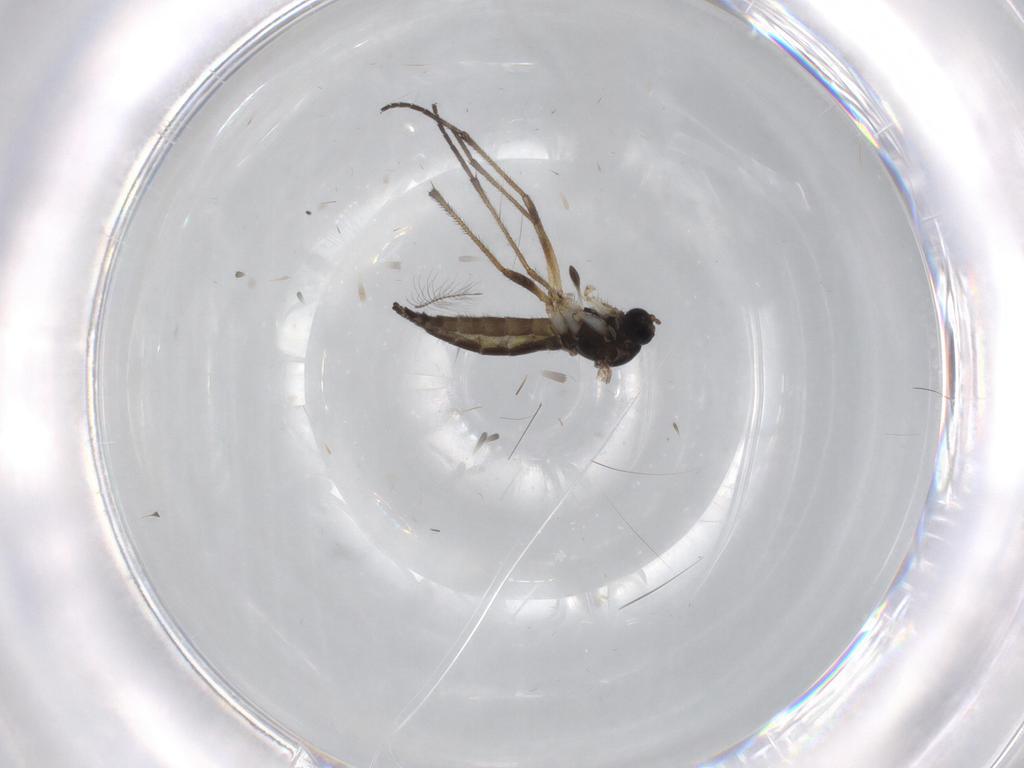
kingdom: Animalia
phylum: Arthropoda
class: Insecta
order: Diptera
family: Sciaridae
